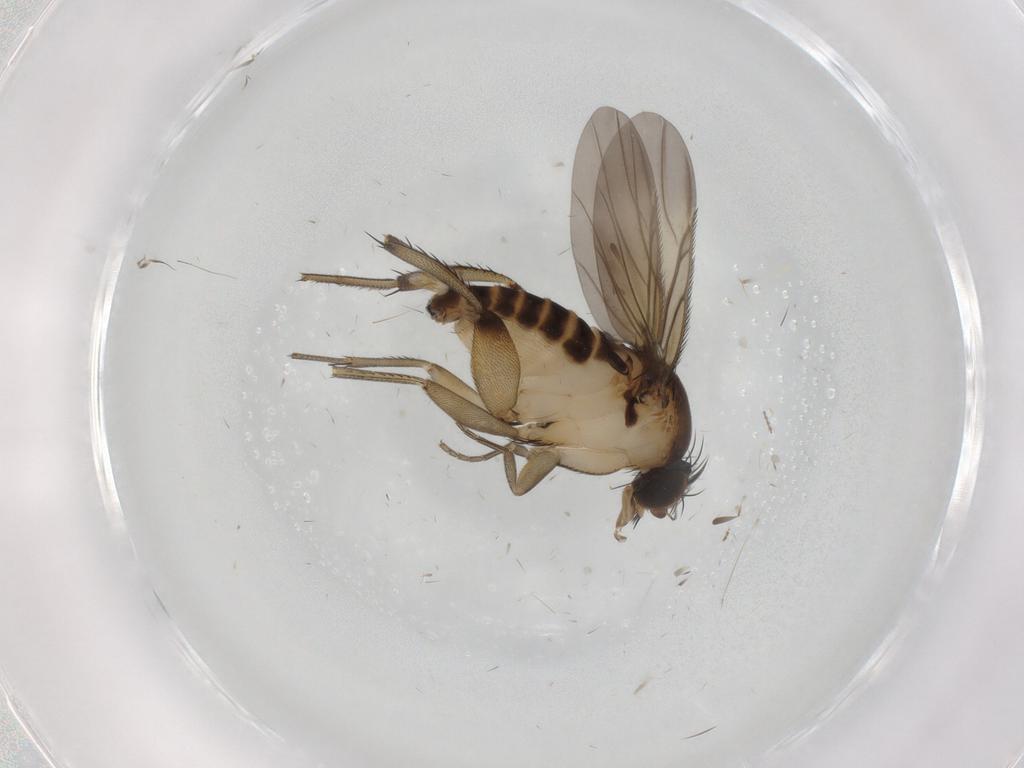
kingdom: Animalia
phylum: Arthropoda
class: Insecta
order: Diptera
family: Phoridae
